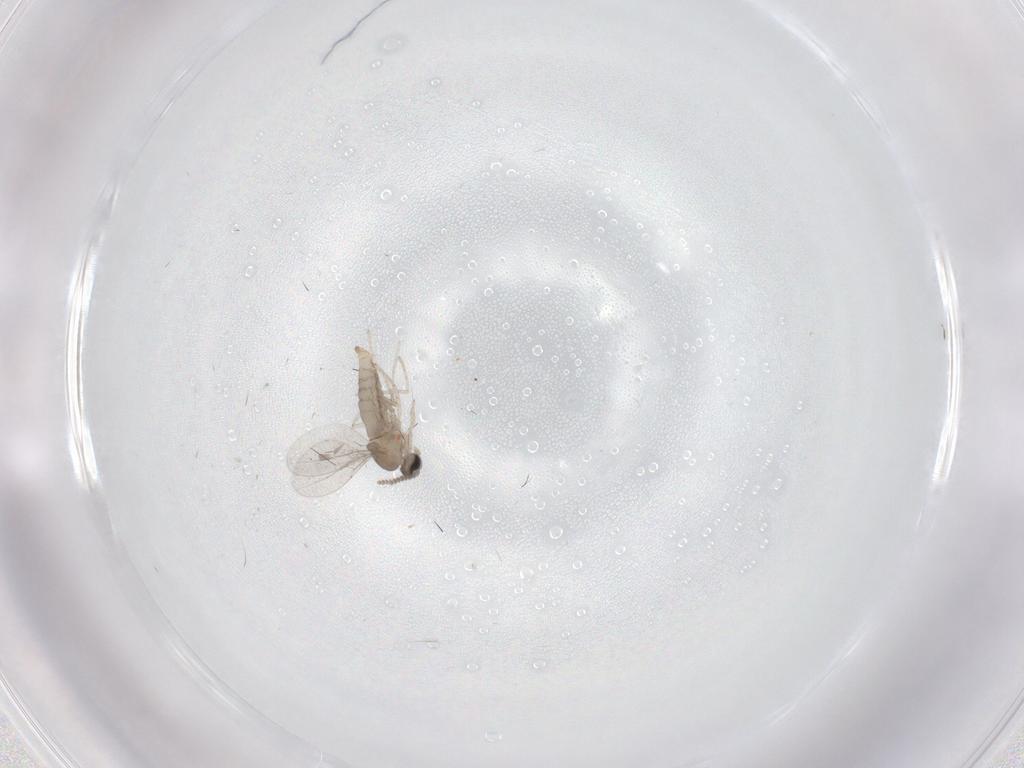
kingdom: Animalia
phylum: Arthropoda
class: Insecta
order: Diptera
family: Cecidomyiidae
